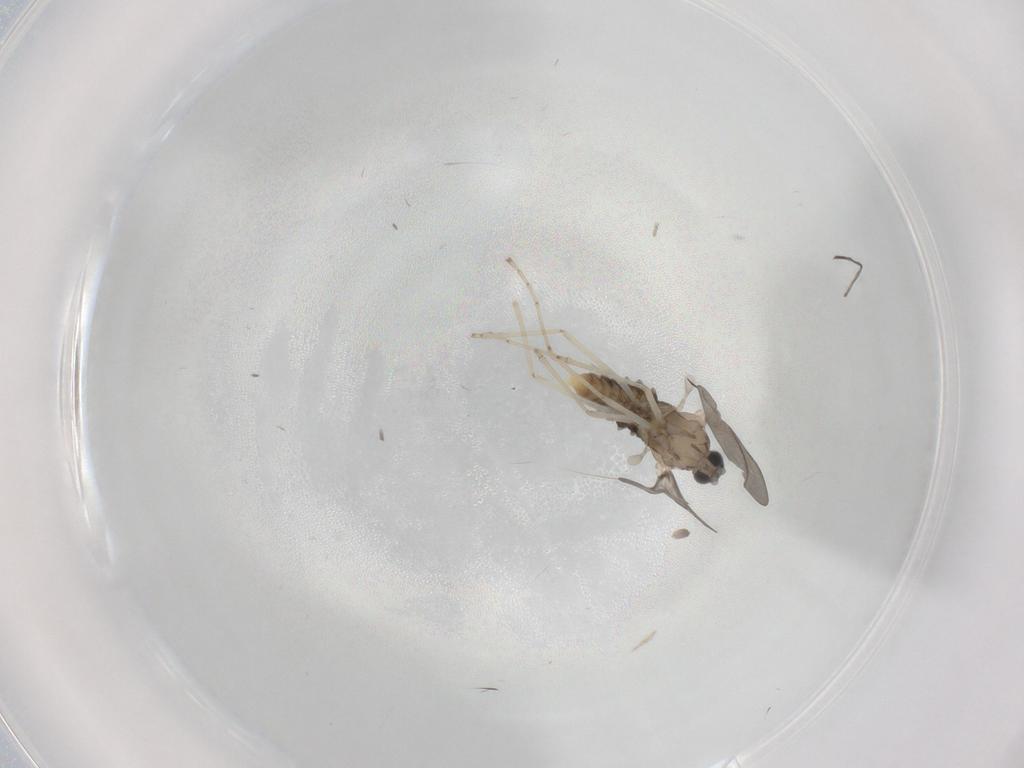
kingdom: Animalia
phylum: Arthropoda
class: Insecta
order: Diptera
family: Cecidomyiidae
